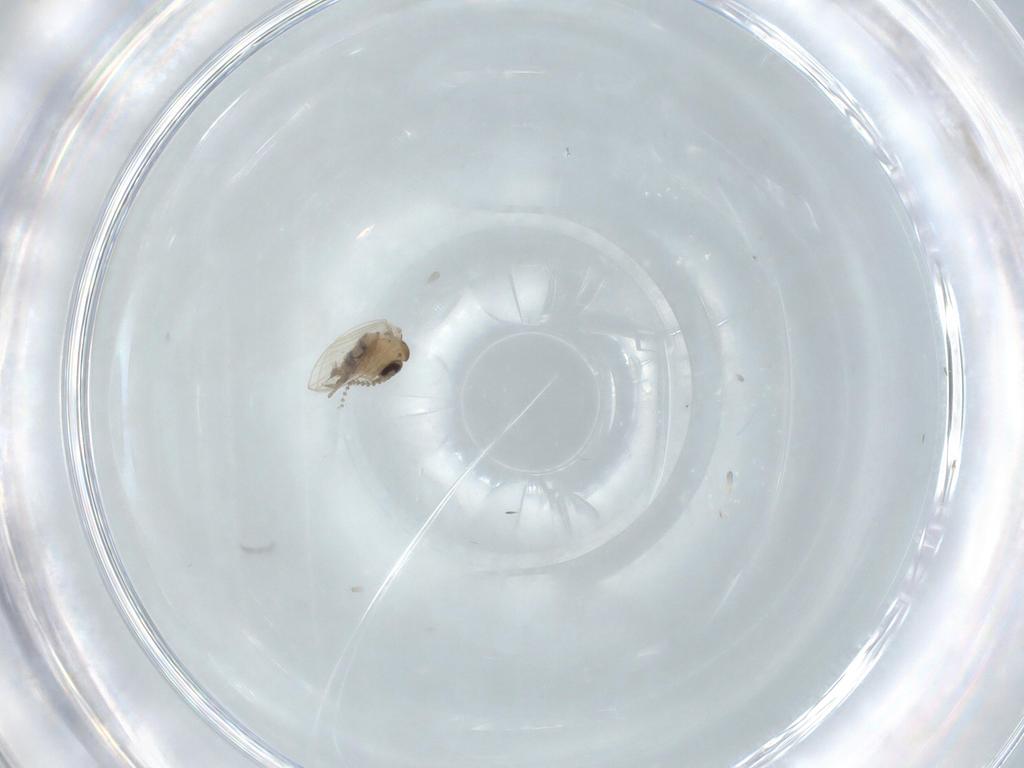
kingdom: Animalia
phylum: Arthropoda
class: Insecta
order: Diptera
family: Psychodidae
